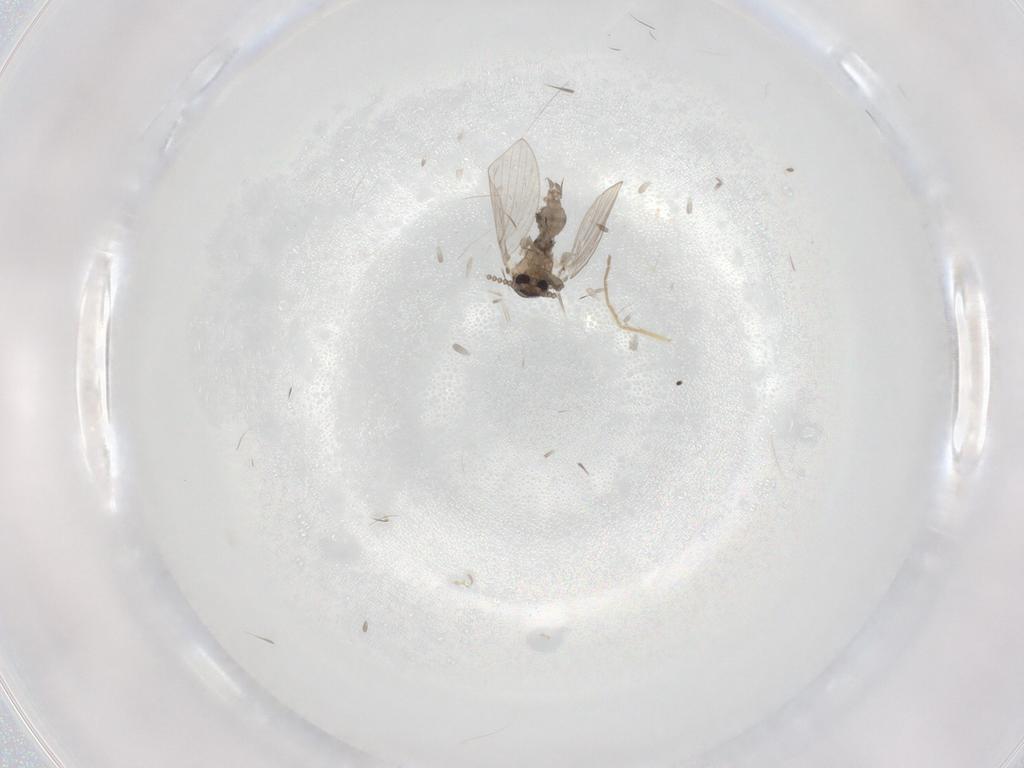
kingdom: Animalia
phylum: Arthropoda
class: Insecta
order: Diptera
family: Psychodidae
